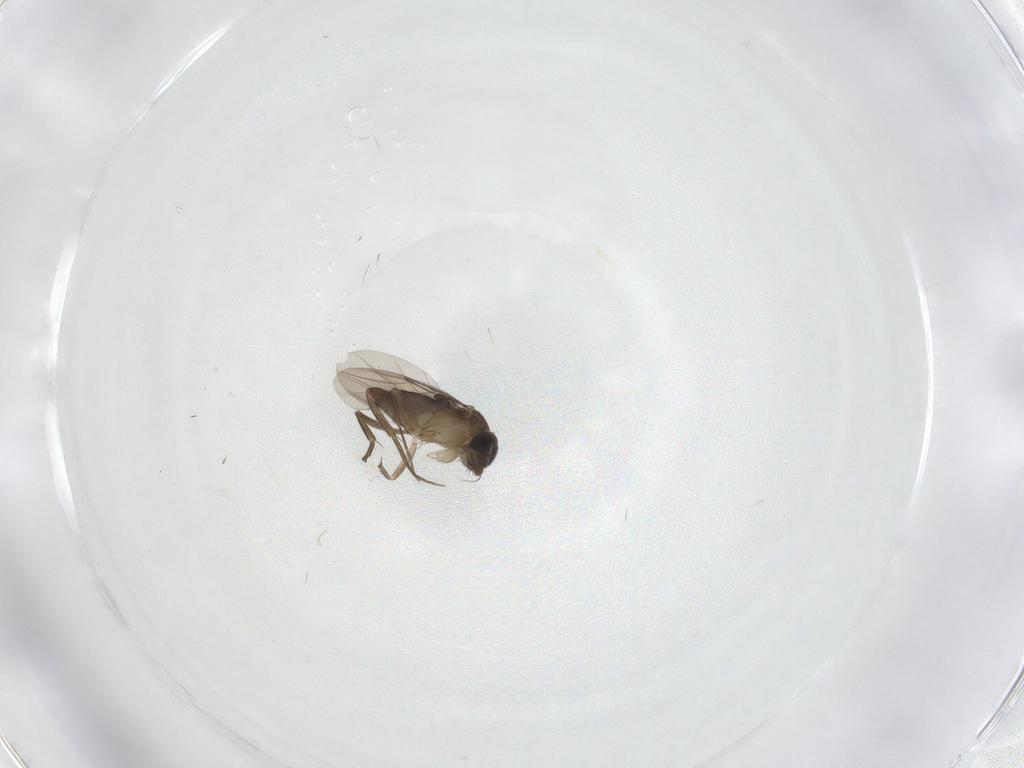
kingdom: Animalia
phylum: Arthropoda
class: Insecta
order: Diptera
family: Phoridae
